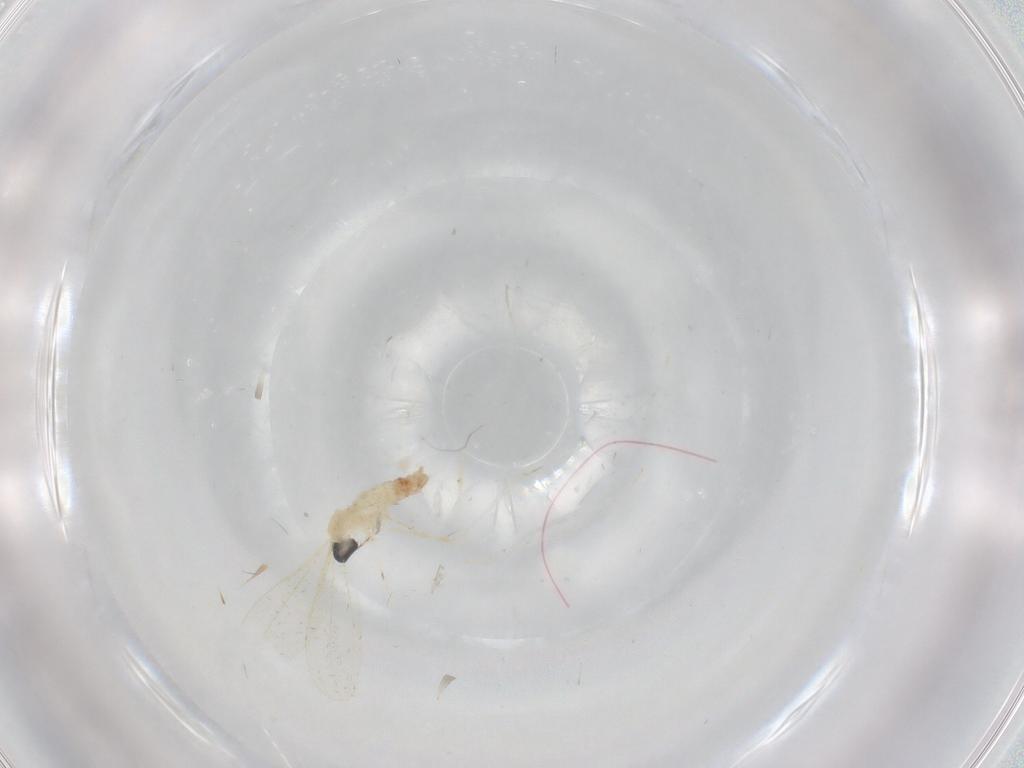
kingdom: Animalia
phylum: Arthropoda
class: Insecta
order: Diptera
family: Cecidomyiidae
